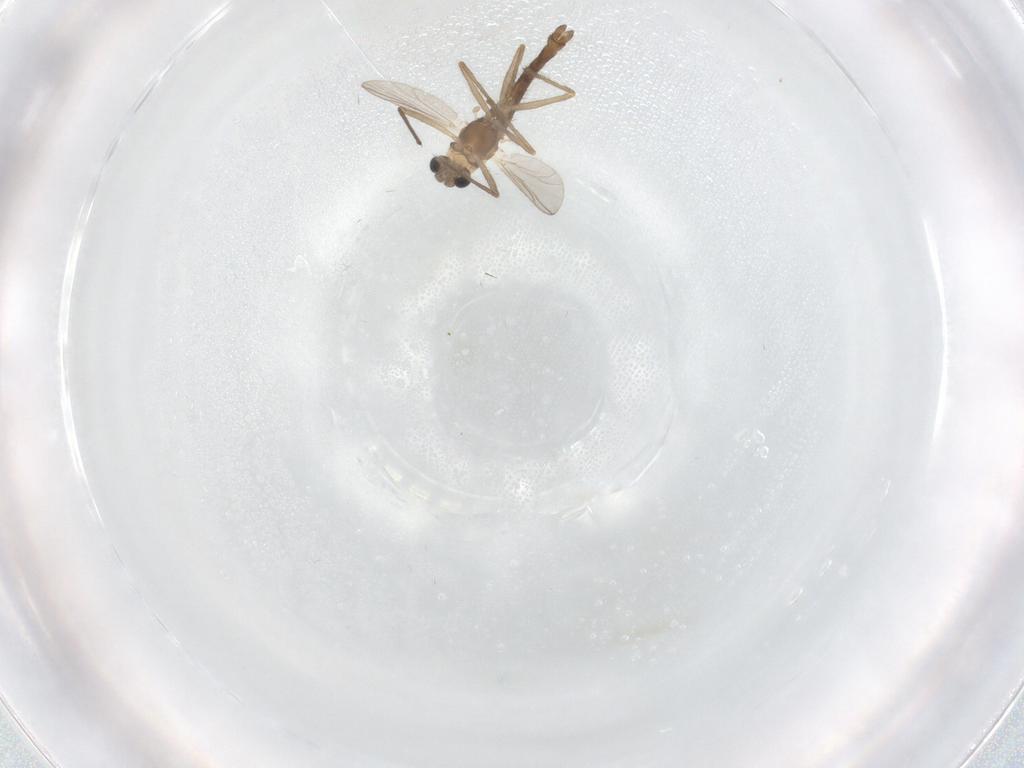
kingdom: Animalia
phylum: Arthropoda
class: Insecta
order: Diptera
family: Chironomidae
